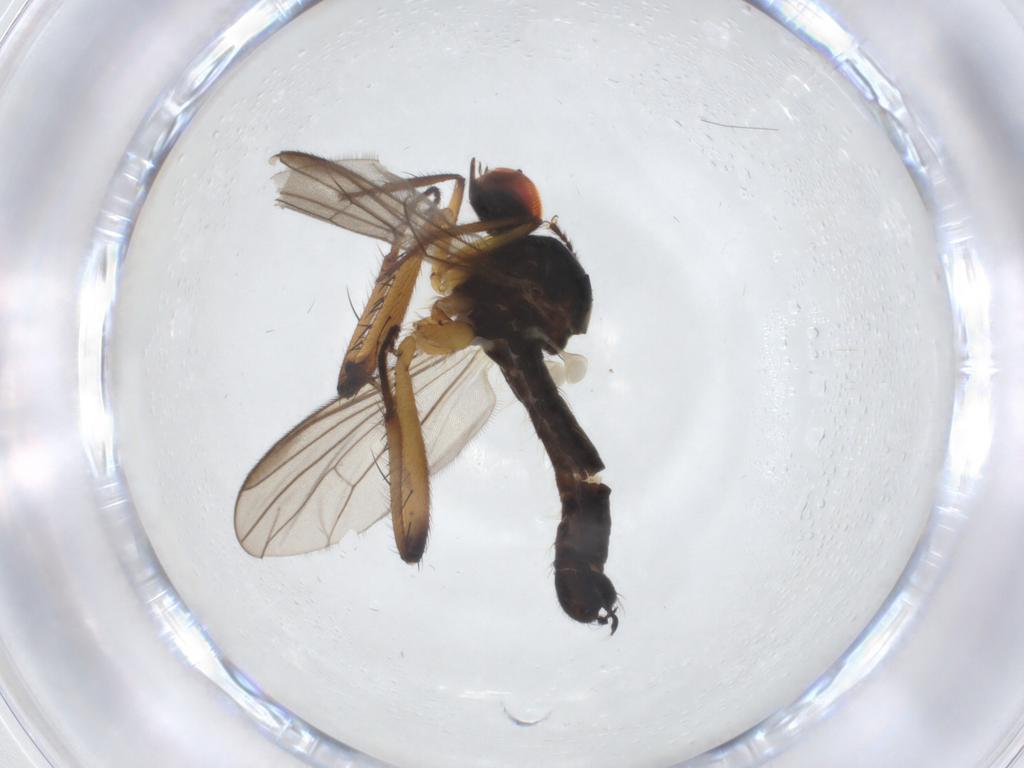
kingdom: Animalia
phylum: Arthropoda
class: Insecta
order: Diptera
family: Hybotidae
